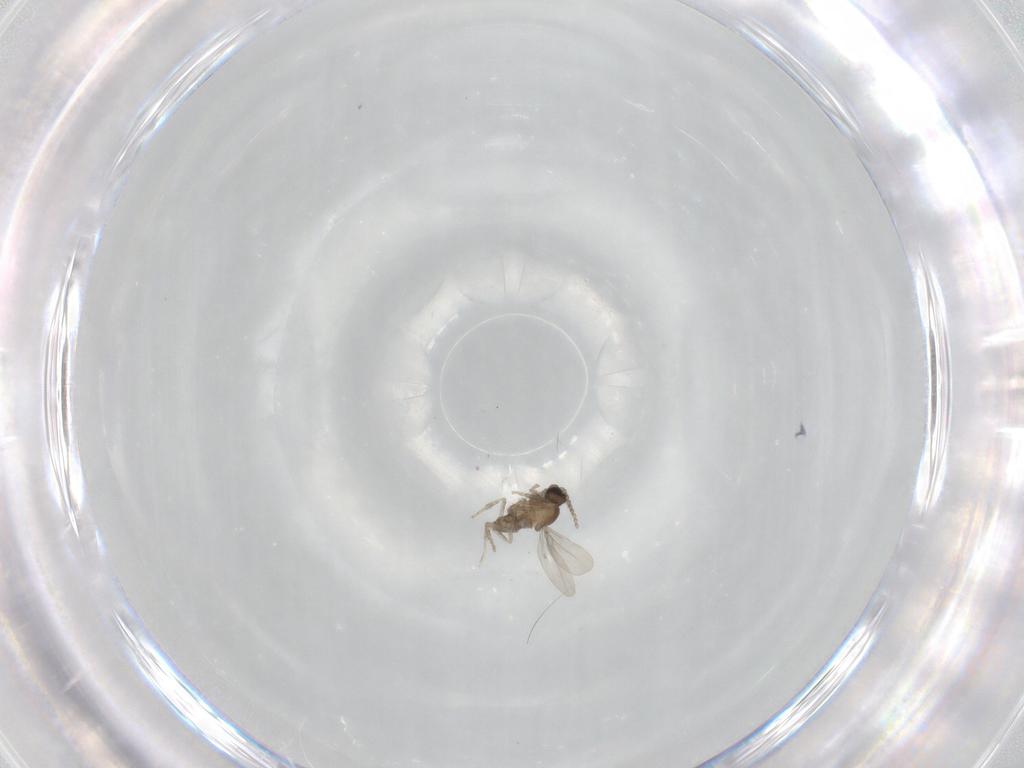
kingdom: Animalia
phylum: Arthropoda
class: Insecta
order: Diptera
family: Cecidomyiidae
